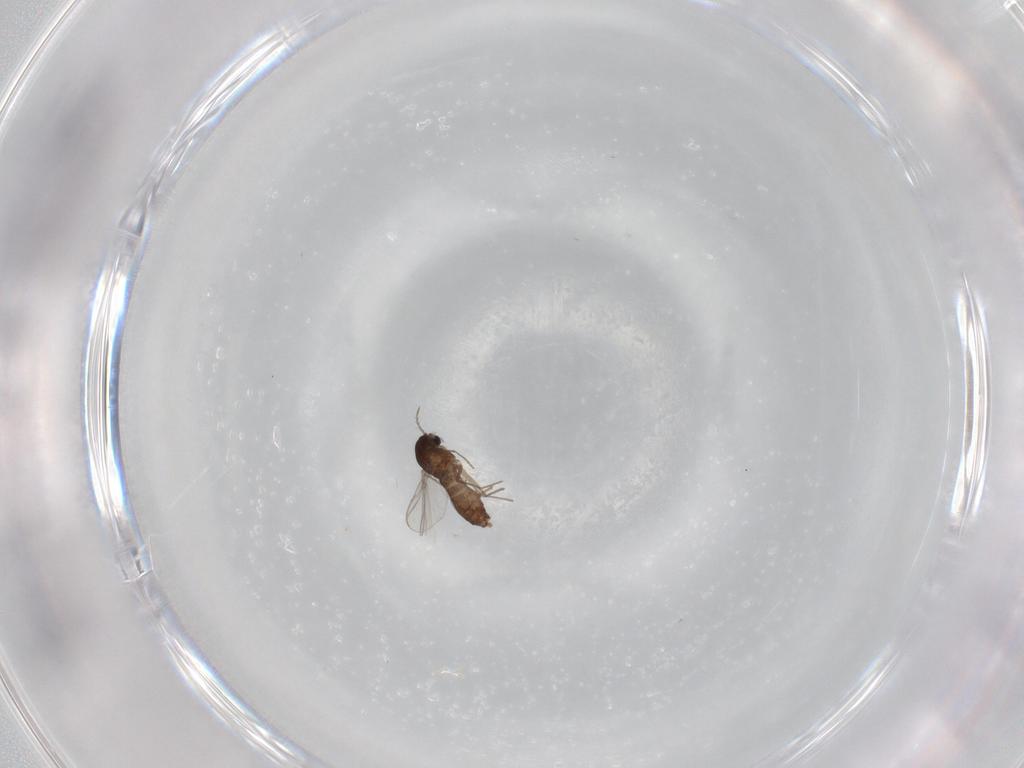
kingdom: Animalia
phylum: Arthropoda
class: Insecta
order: Diptera
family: Chironomidae
